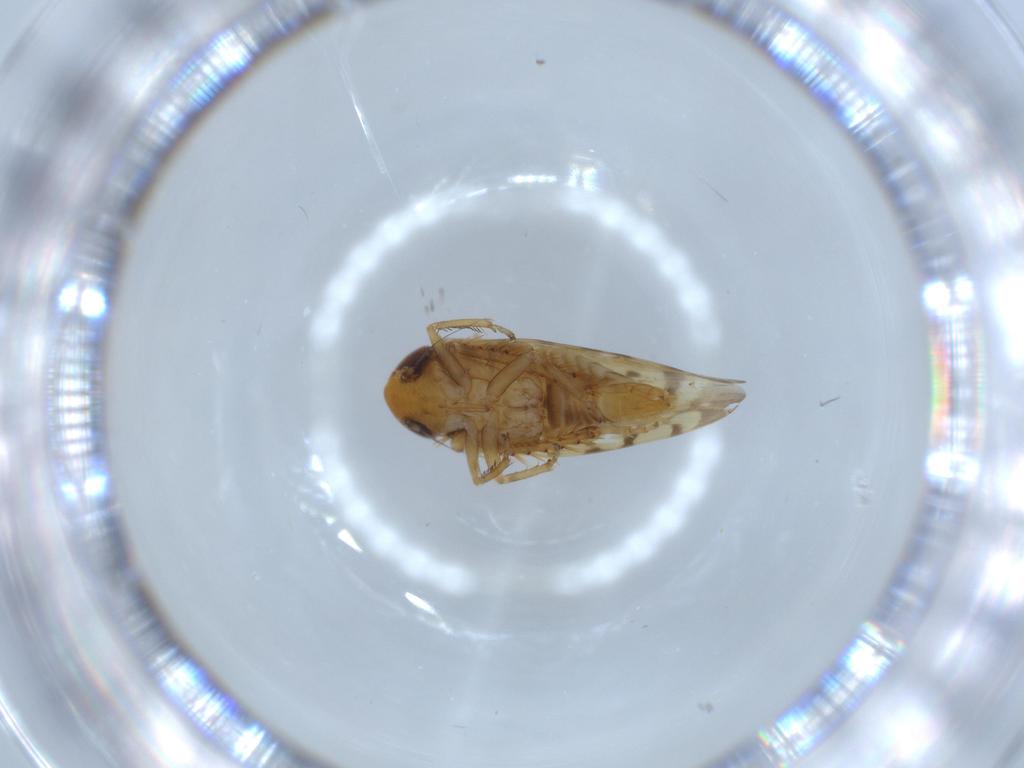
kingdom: Animalia
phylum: Arthropoda
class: Insecta
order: Hemiptera
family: Cicadellidae
